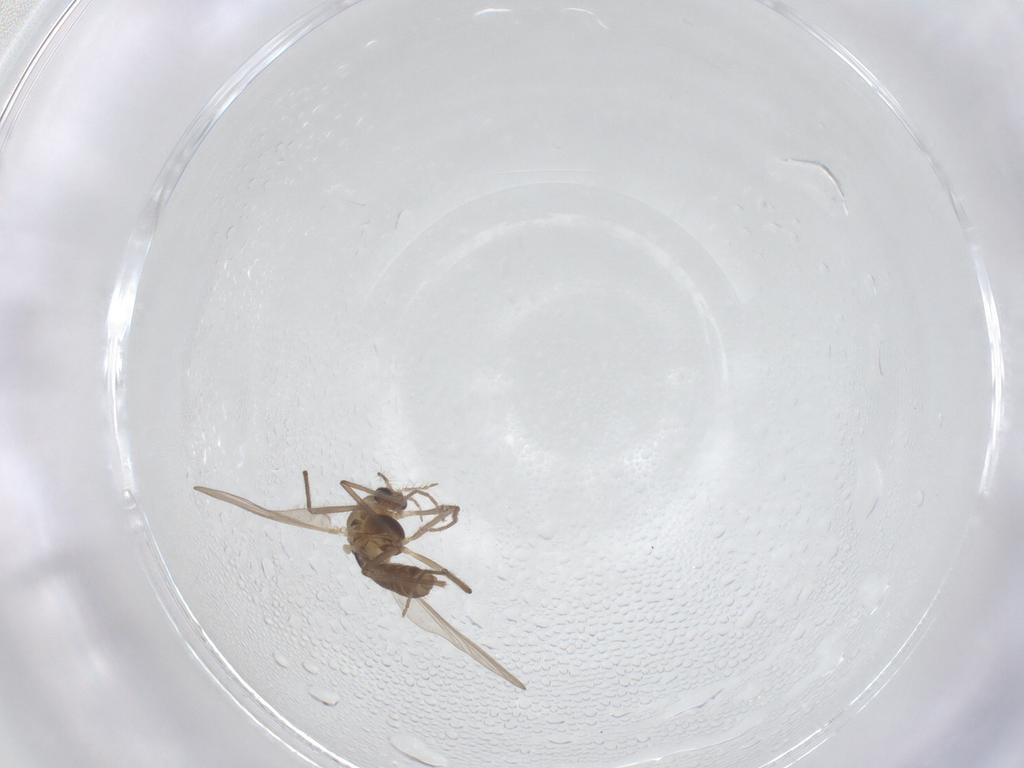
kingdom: Animalia
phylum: Arthropoda
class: Insecta
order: Diptera
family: Chironomidae
